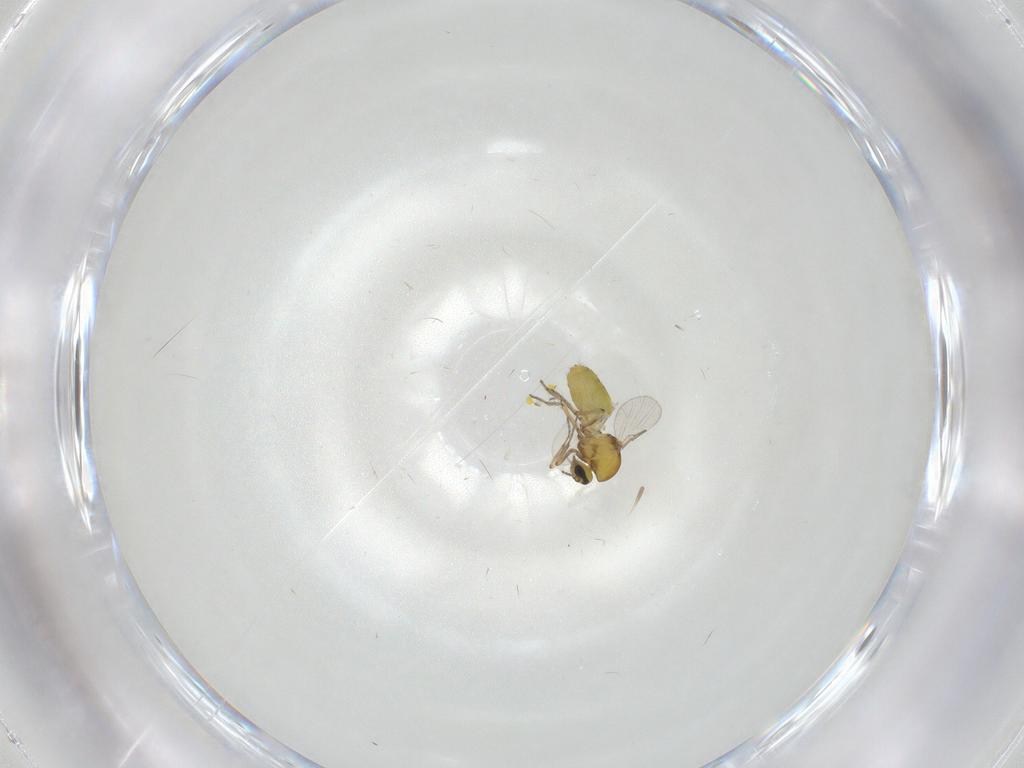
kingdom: Animalia
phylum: Arthropoda
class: Insecta
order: Diptera
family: Ceratopogonidae
